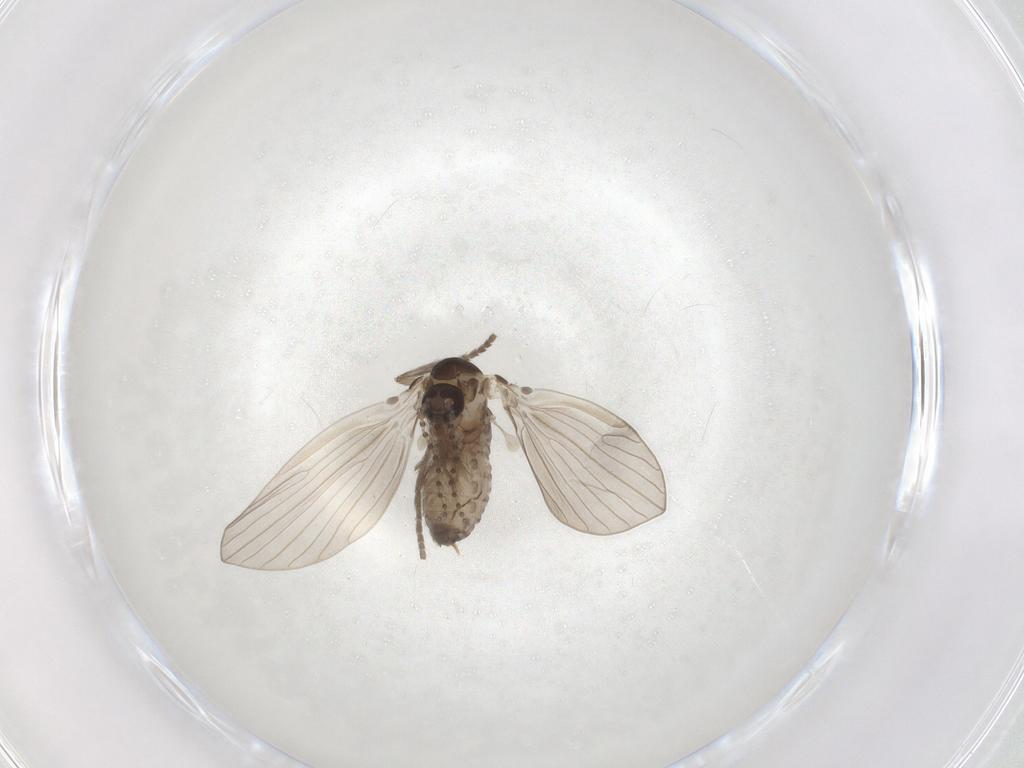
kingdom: Animalia
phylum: Arthropoda
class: Insecta
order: Diptera
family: Psychodidae
